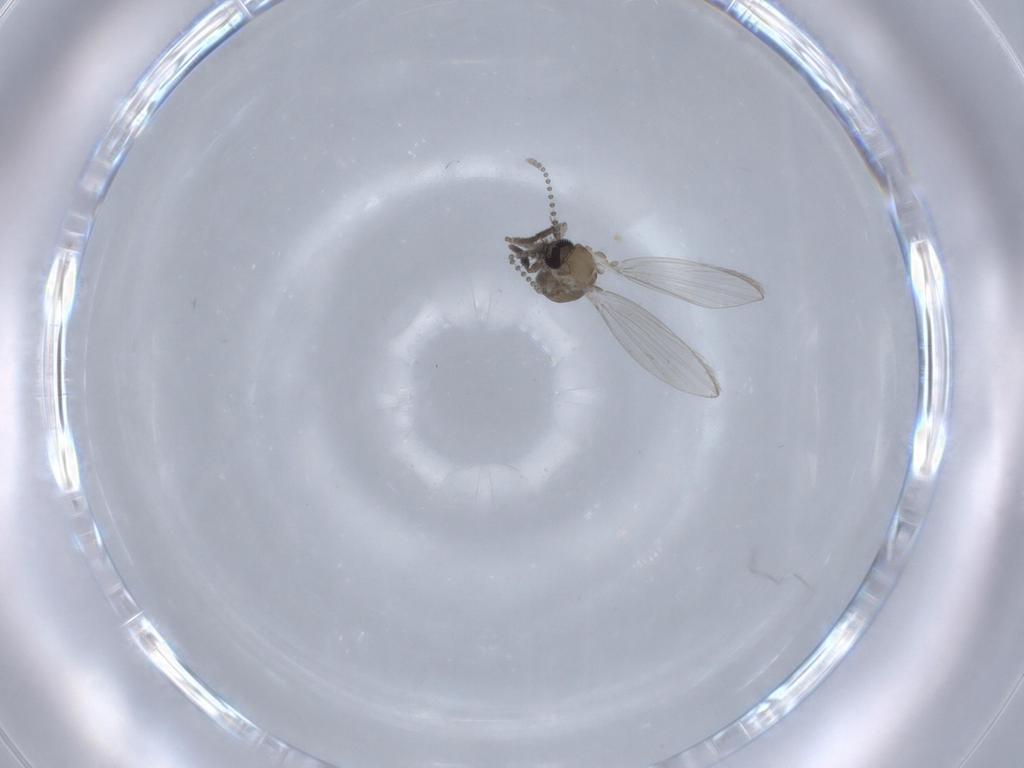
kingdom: Animalia
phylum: Arthropoda
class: Insecta
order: Diptera
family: Psychodidae
